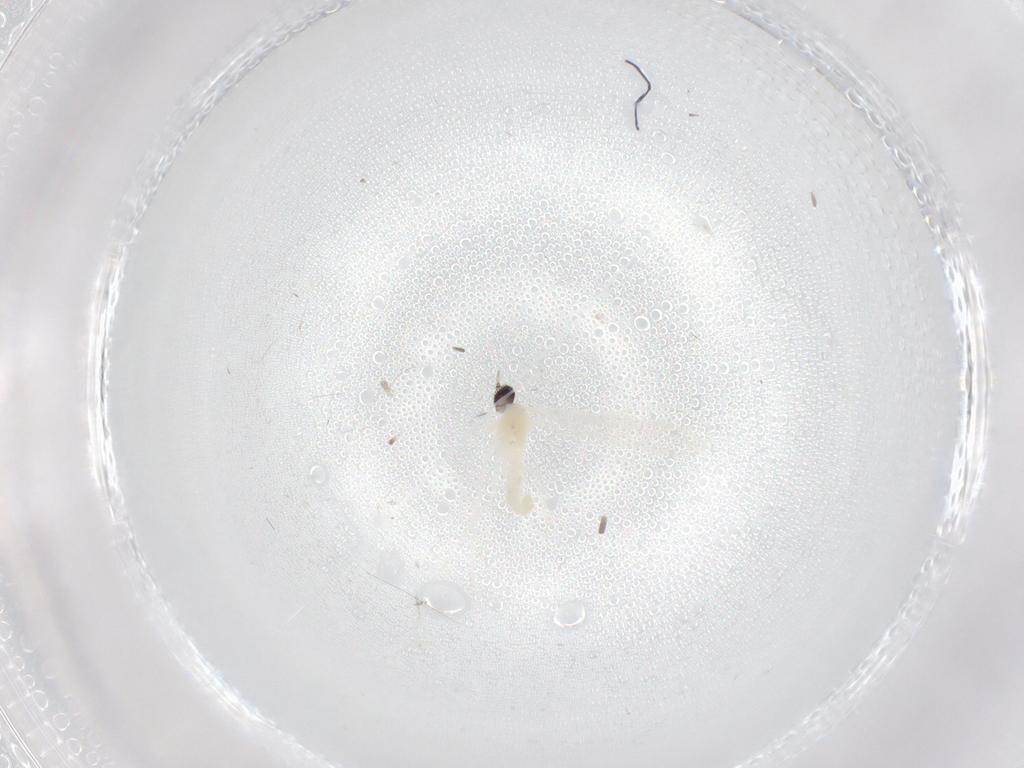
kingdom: Animalia
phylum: Arthropoda
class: Insecta
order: Diptera
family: Cecidomyiidae
